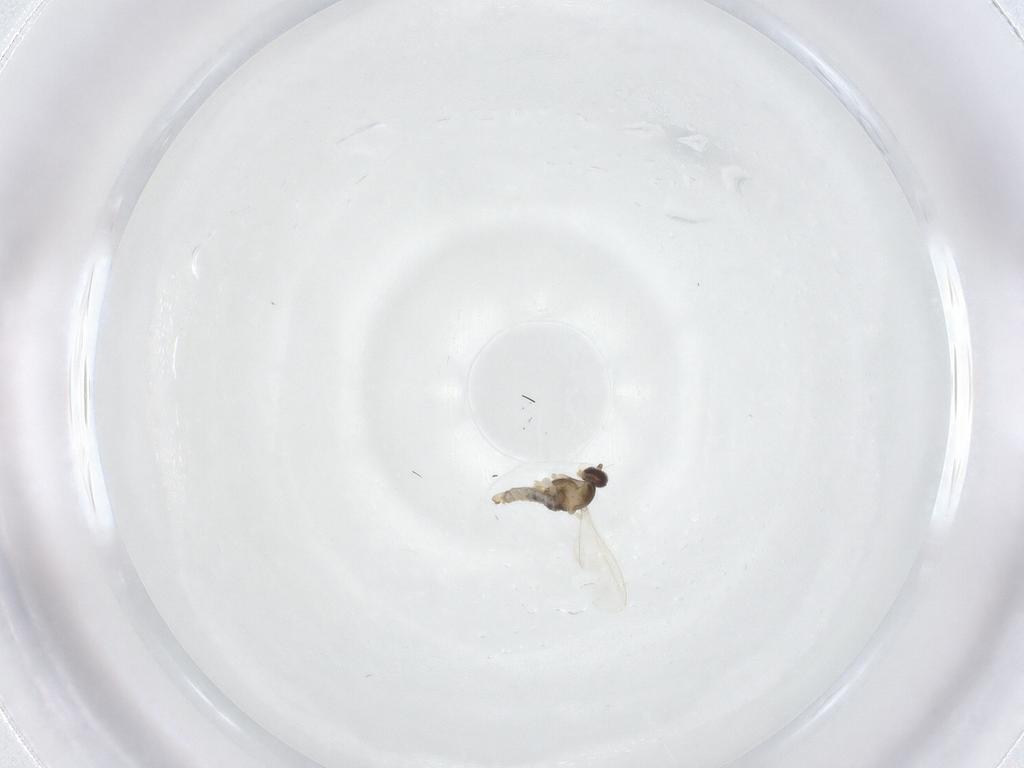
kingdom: Animalia
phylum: Arthropoda
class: Insecta
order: Diptera
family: Cecidomyiidae
